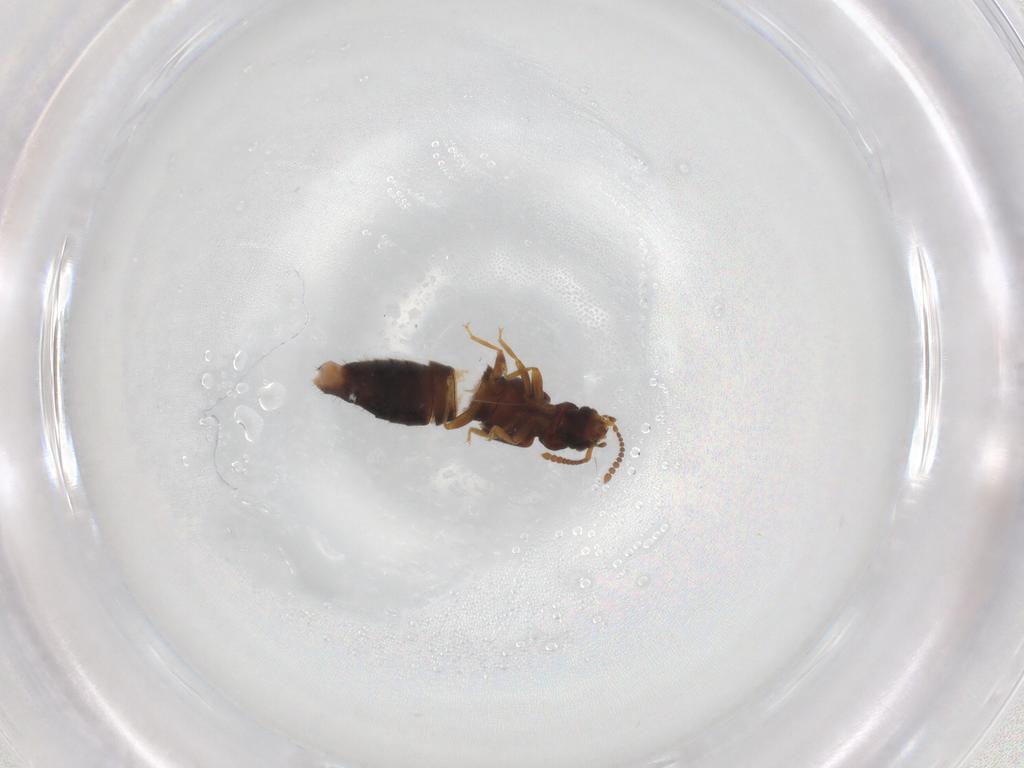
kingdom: Animalia
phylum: Arthropoda
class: Insecta
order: Coleoptera
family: Staphylinidae
